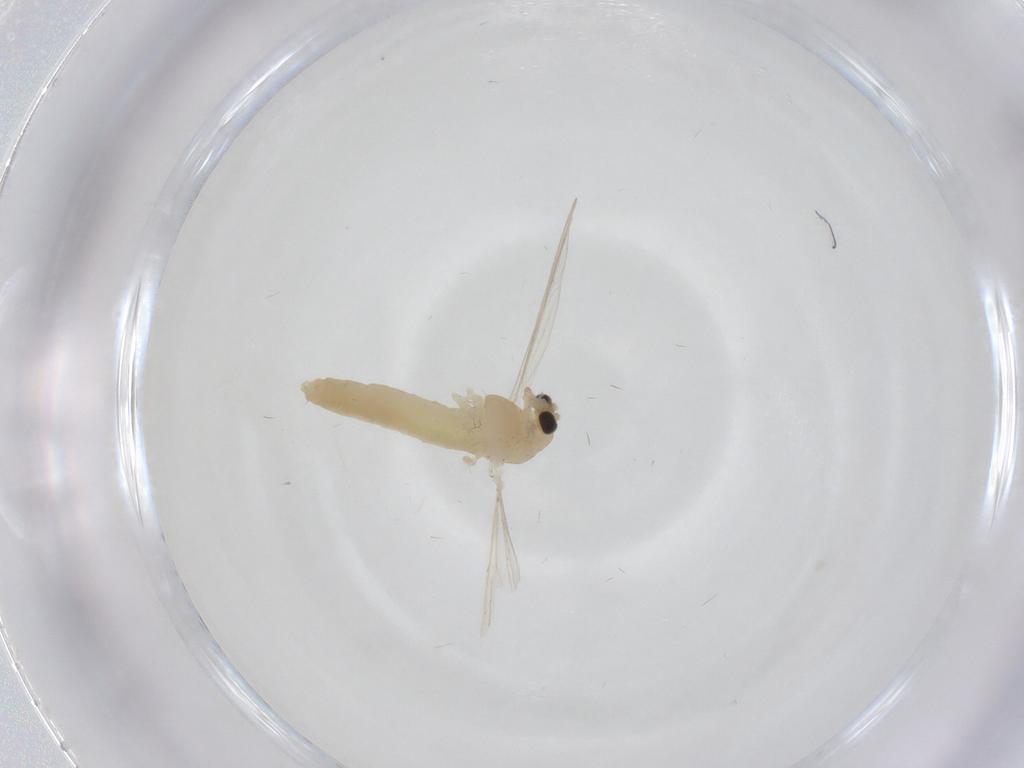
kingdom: Animalia
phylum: Arthropoda
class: Insecta
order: Diptera
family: Chironomidae
